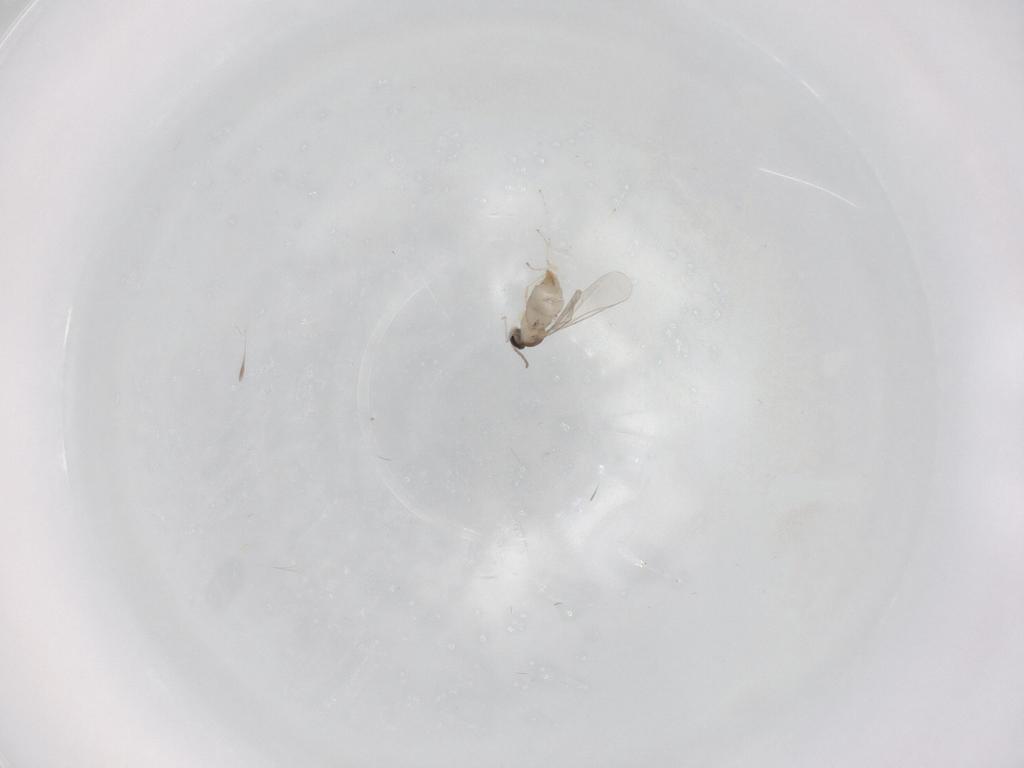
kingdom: Animalia
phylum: Arthropoda
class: Insecta
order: Diptera
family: Cecidomyiidae
